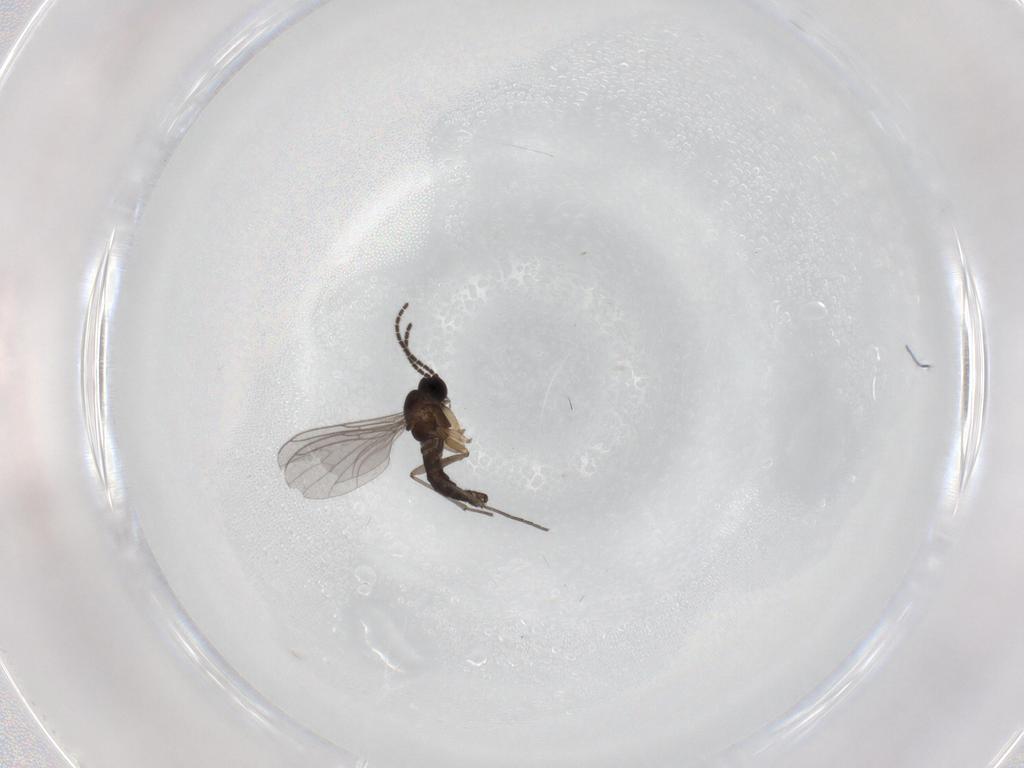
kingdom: Animalia
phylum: Arthropoda
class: Insecta
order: Diptera
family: Sciaridae
